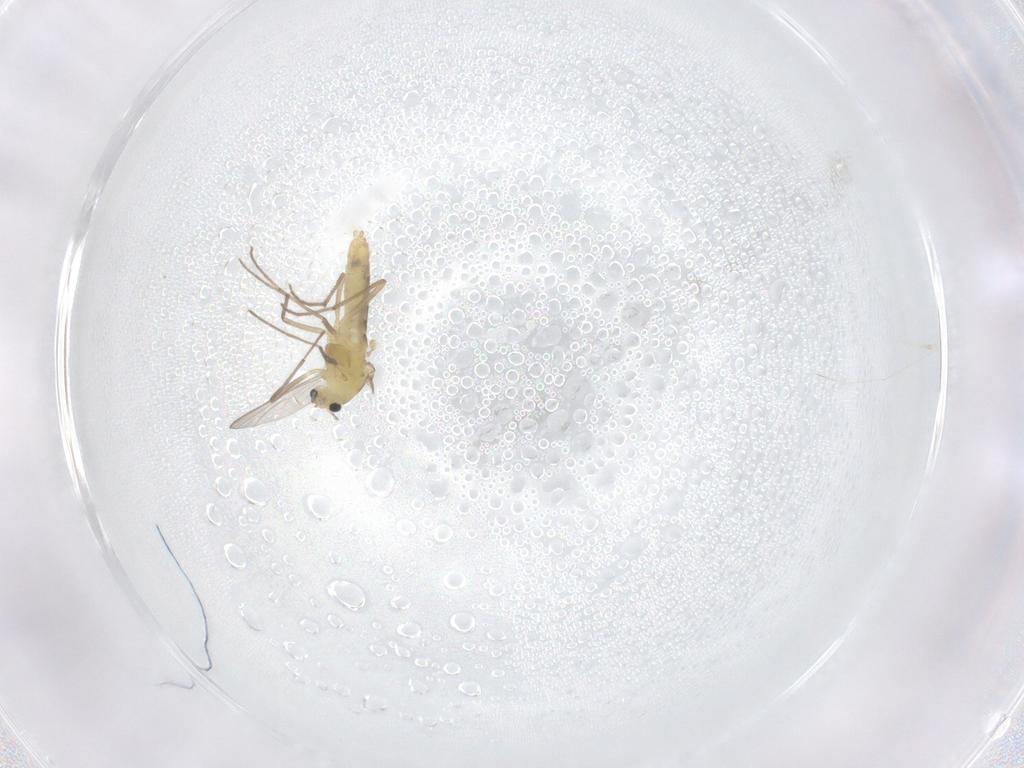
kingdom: Animalia
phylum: Arthropoda
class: Insecta
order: Diptera
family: Chironomidae
